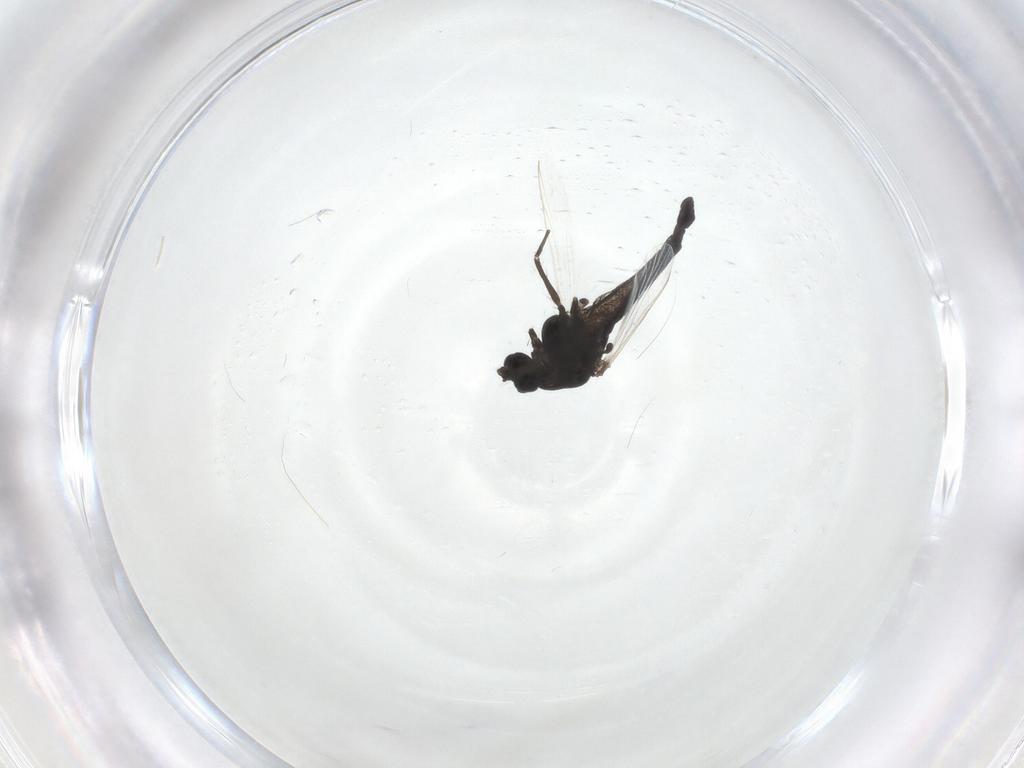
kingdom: Animalia
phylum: Arthropoda
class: Insecta
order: Diptera
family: Chironomidae
